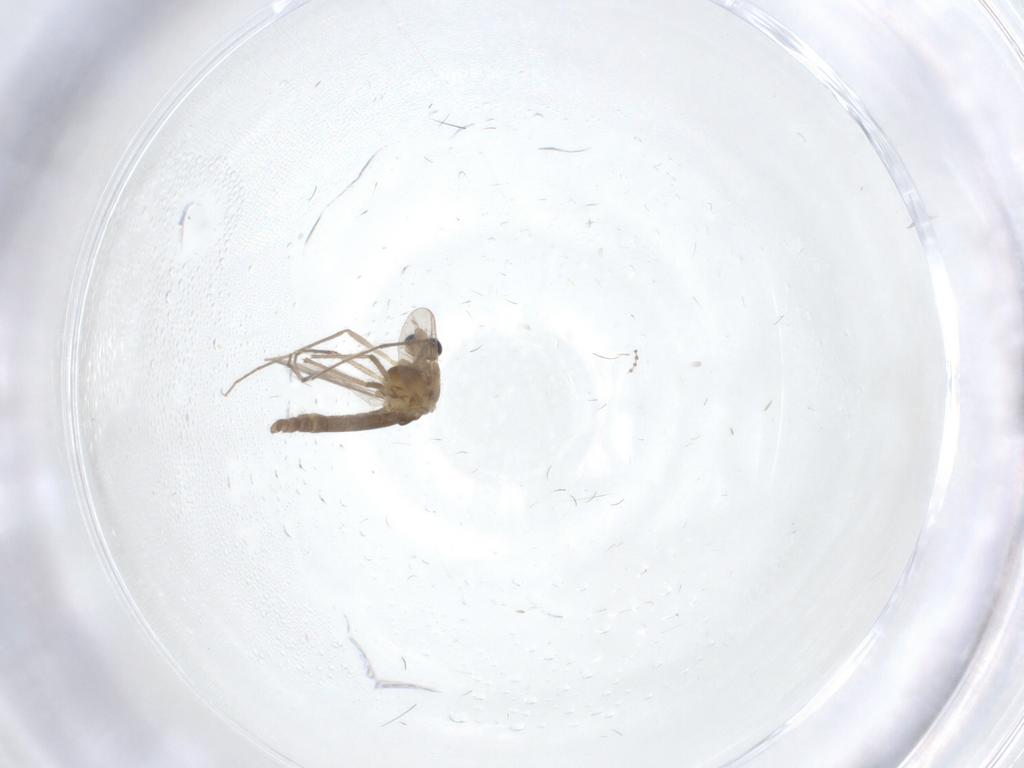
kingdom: Animalia
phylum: Arthropoda
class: Insecta
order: Diptera
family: Chironomidae
